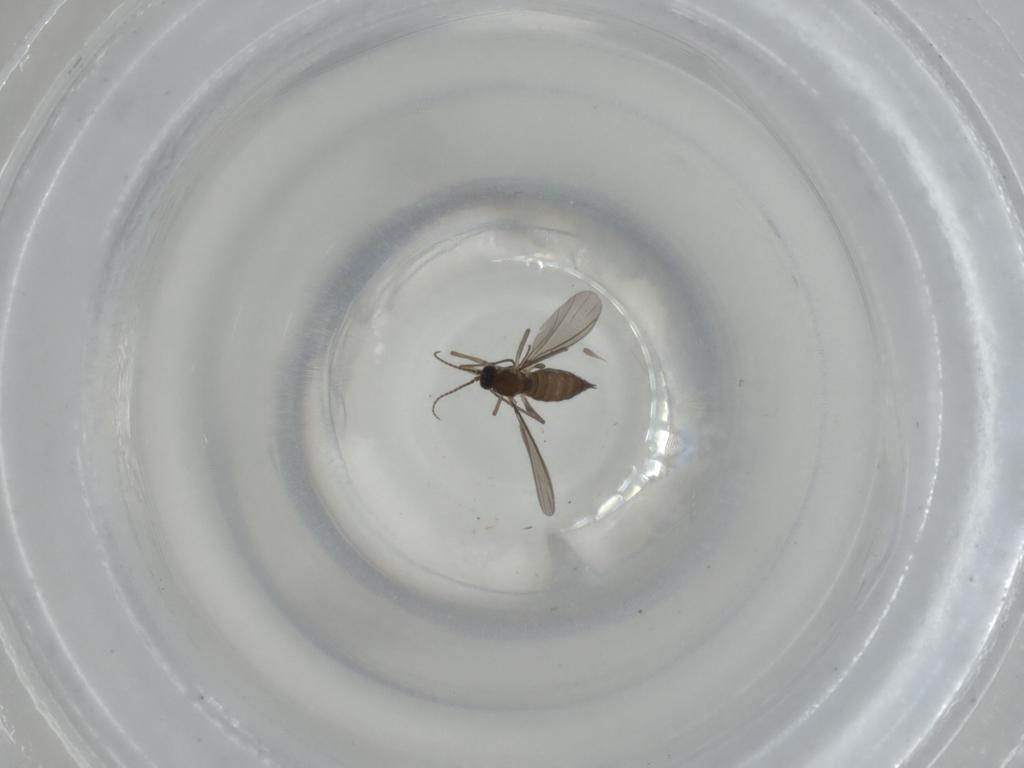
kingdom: Animalia
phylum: Arthropoda
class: Insecta
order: Diptera
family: Sciaridae
